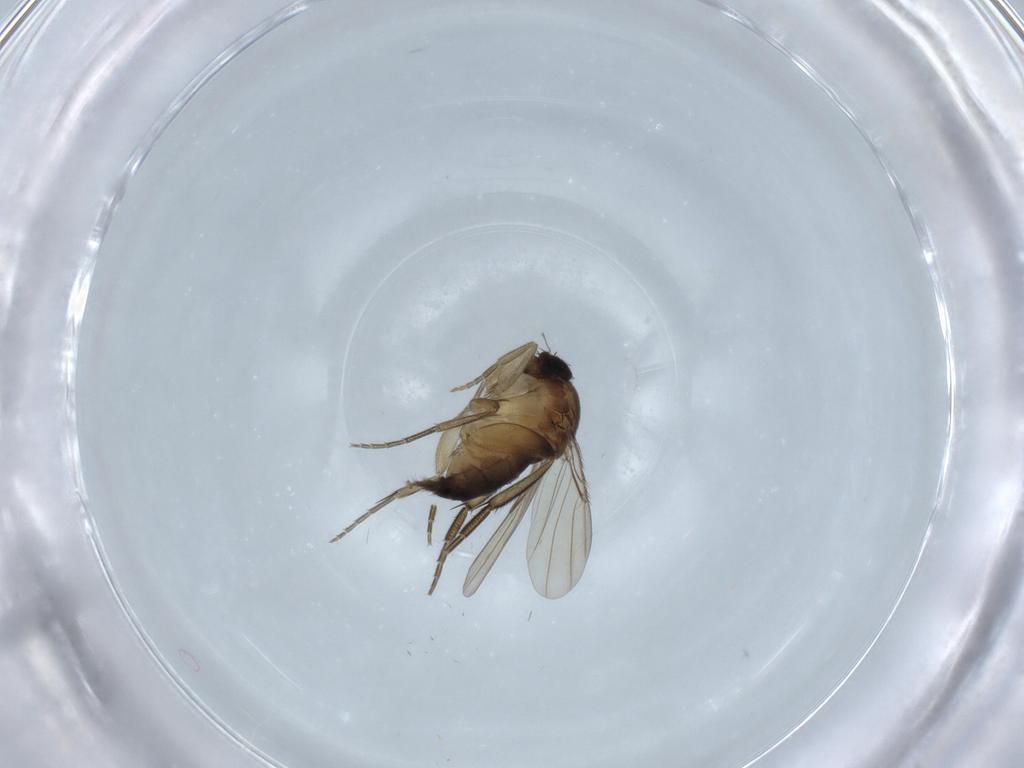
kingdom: Animalia
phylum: Arthropoda
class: Insecta
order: Diptera
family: Phoridae
